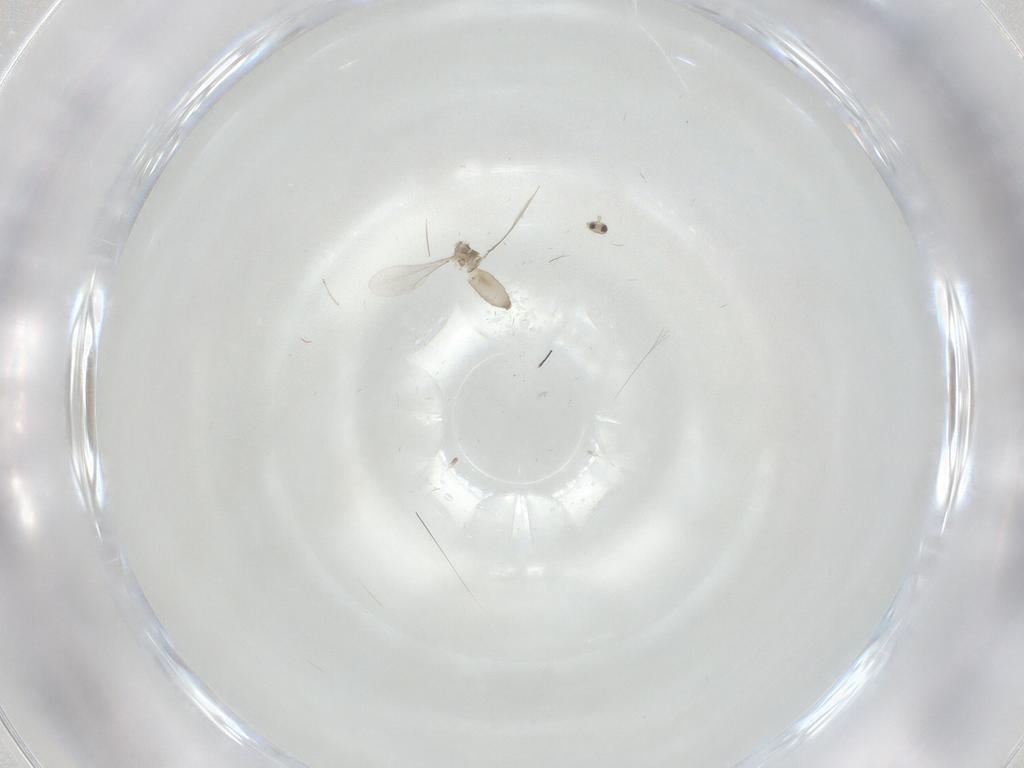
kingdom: Animalia
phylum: Arthropoda
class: Insecta
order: Diptera
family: Cecidomyiidae
